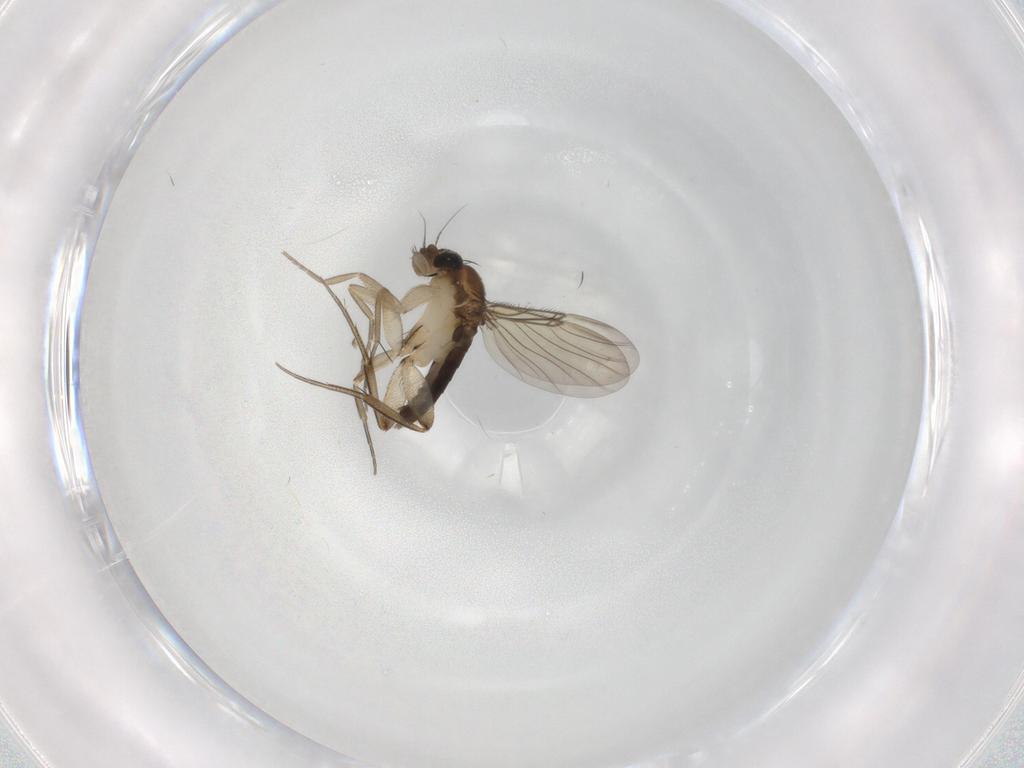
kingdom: Animalia
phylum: Arthropoda
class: Insecta
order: Diptera
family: Phoridae
